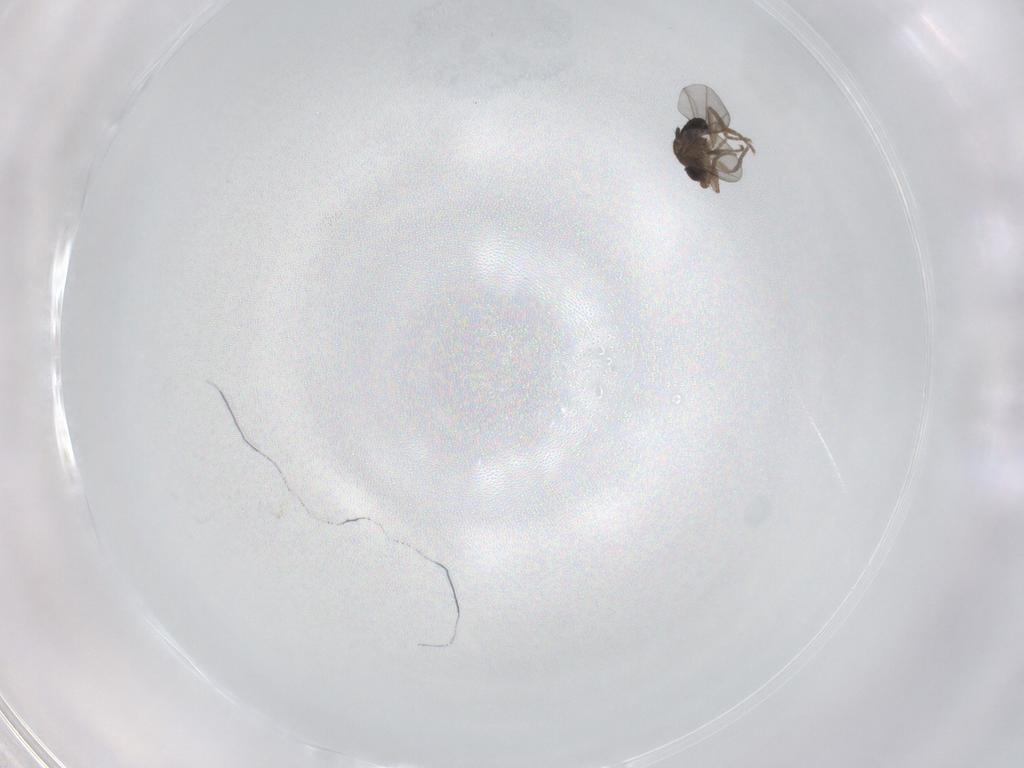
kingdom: Animalia
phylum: Arthropoda
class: Insecta
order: Diptera
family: Phoridae
